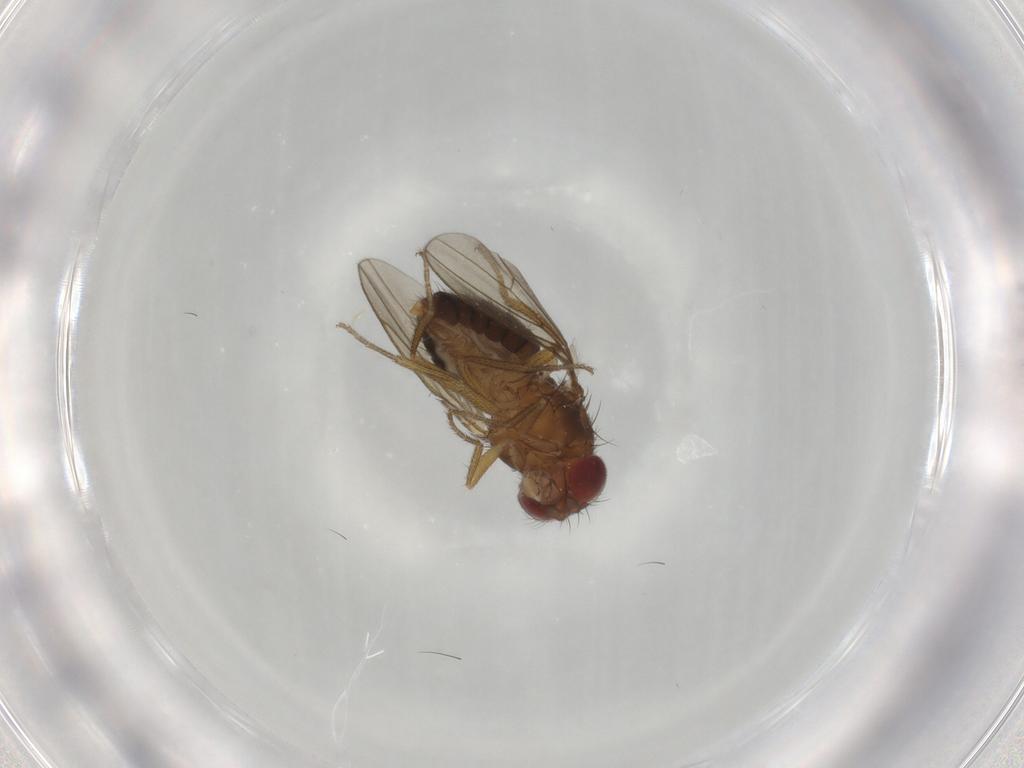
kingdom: Animalia
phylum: Arthropoda
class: Insecta
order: Diptera
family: Drosophilidae
